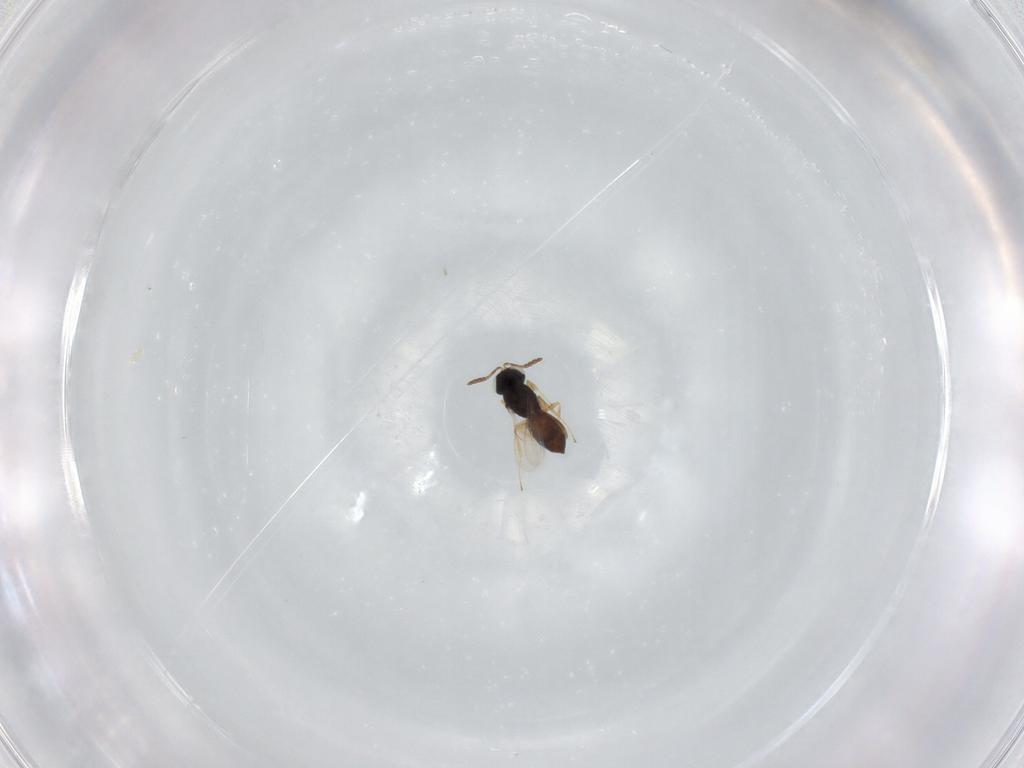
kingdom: Animalia
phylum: Arthropoda
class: Insecta
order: Hymenoptera
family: Scelionidae
